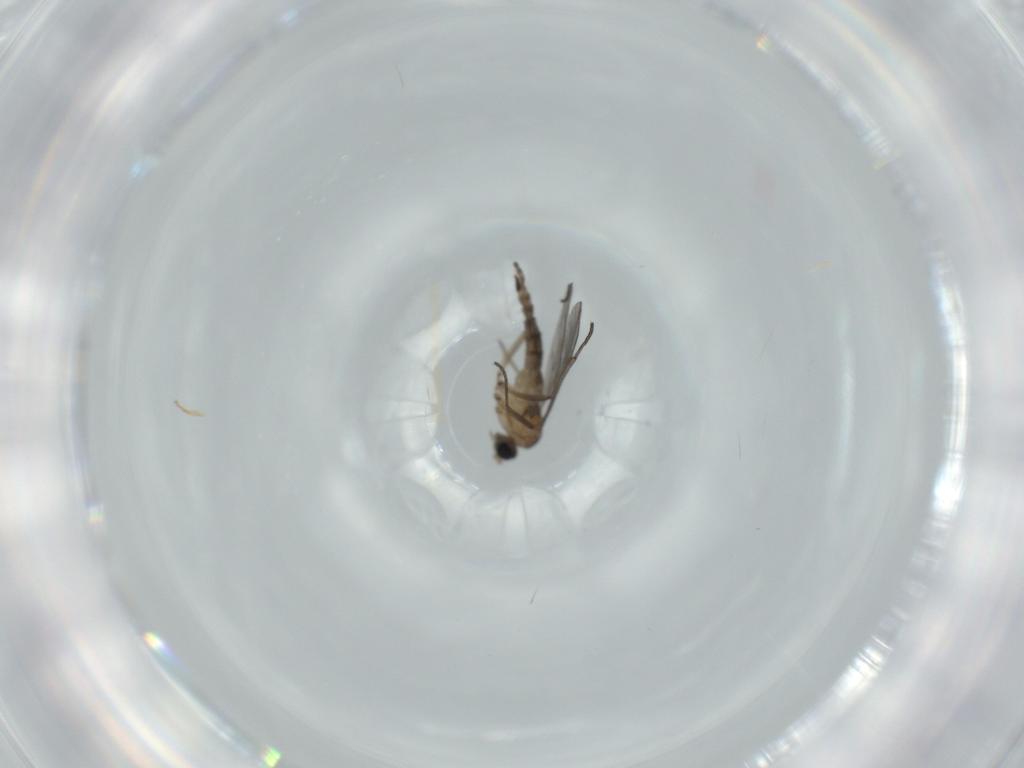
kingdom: Animalia
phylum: Arthropoda
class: Insecta
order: Diptera
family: Sciaridae
